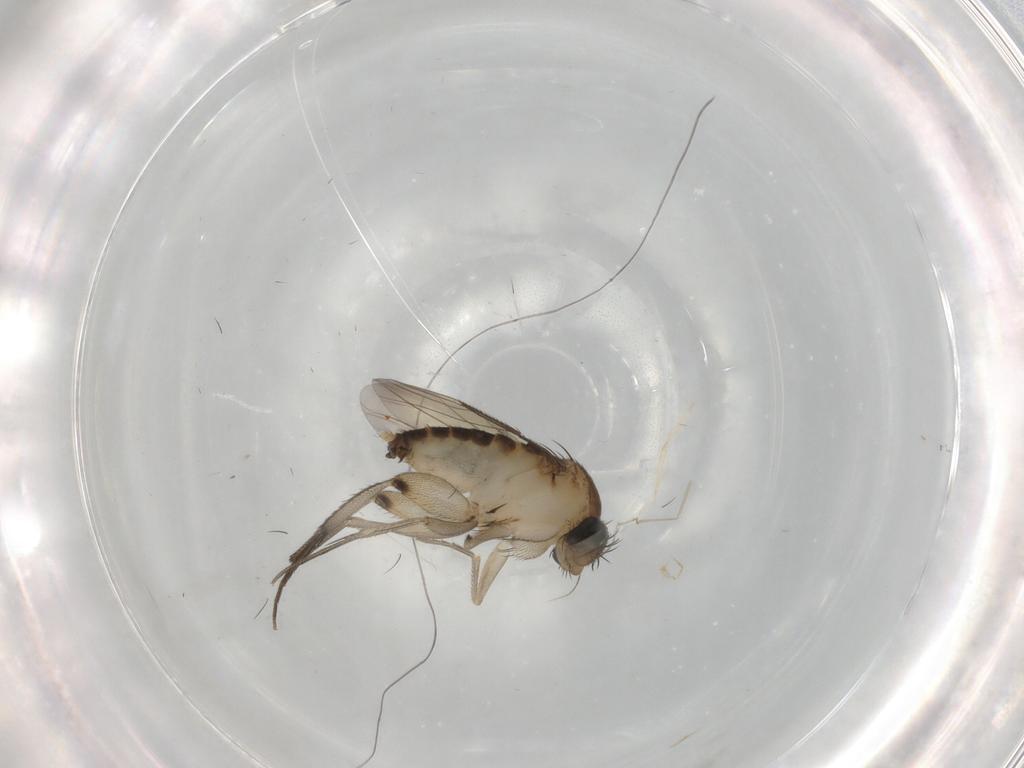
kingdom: Animalia
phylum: Arthropoda
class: Insecta
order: Diptera
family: Phoridae
